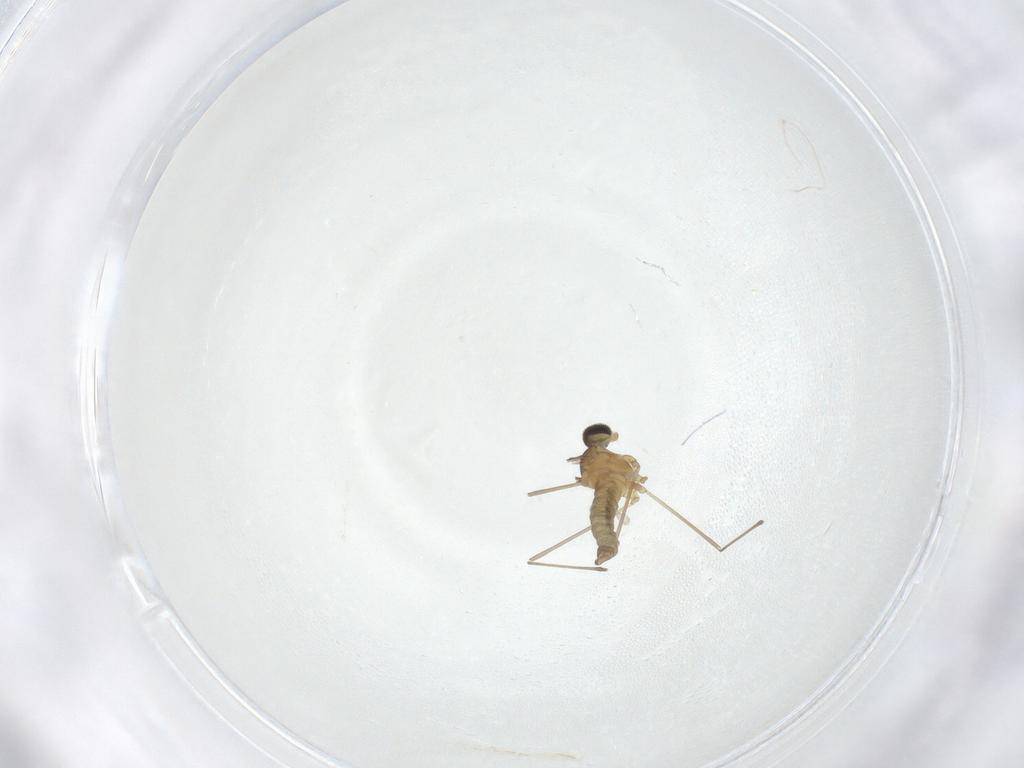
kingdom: Animalia
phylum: Arthropoda
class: Insecta
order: Diptera
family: Cecidomyiidae
